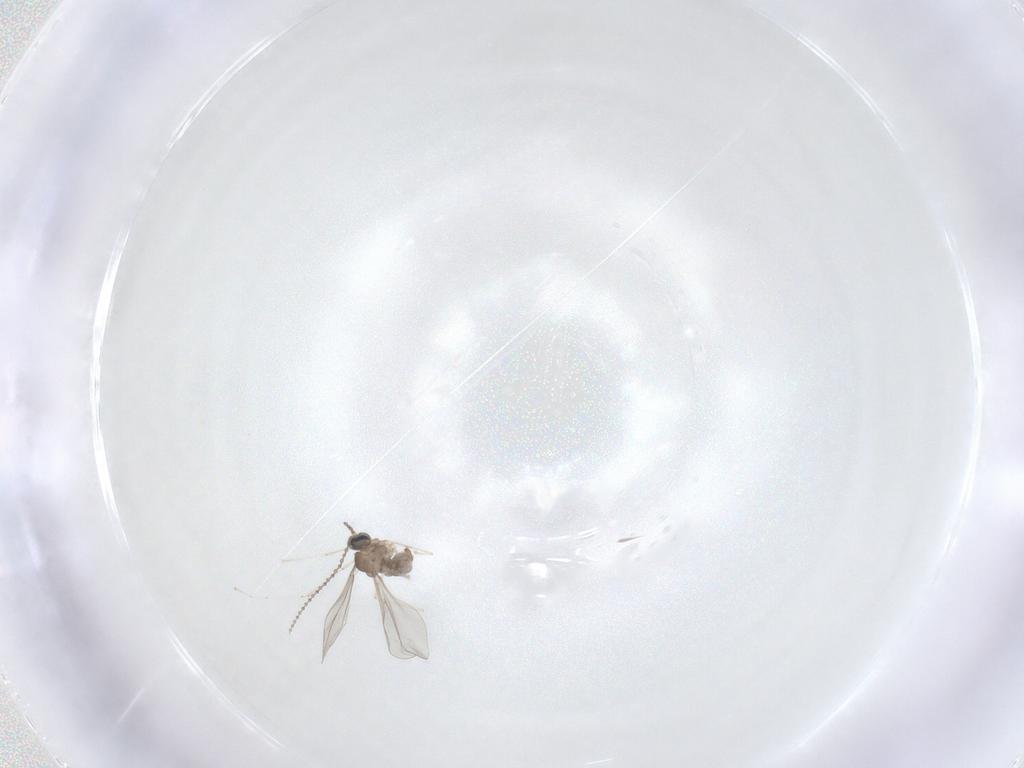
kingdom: Animalia
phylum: Arthropoda
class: Insecta
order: Diptera
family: Cecidomyiidae
